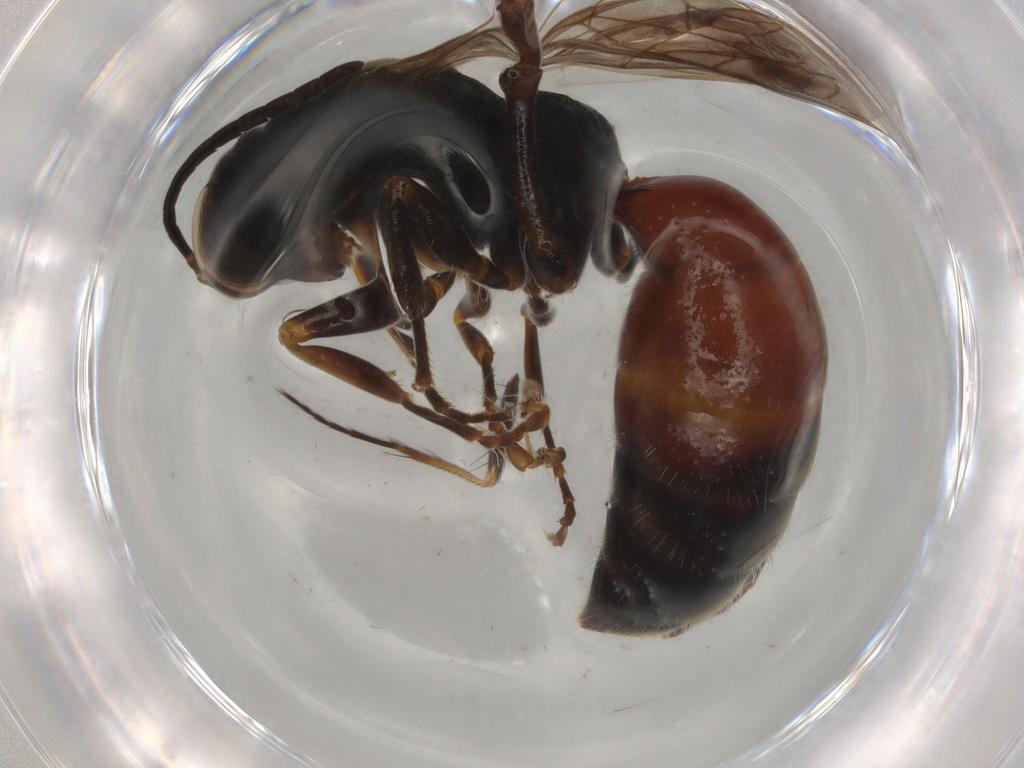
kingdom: Animalia
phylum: Arthropoda
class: Insecta
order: Hymenoptera
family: Bembicidae
